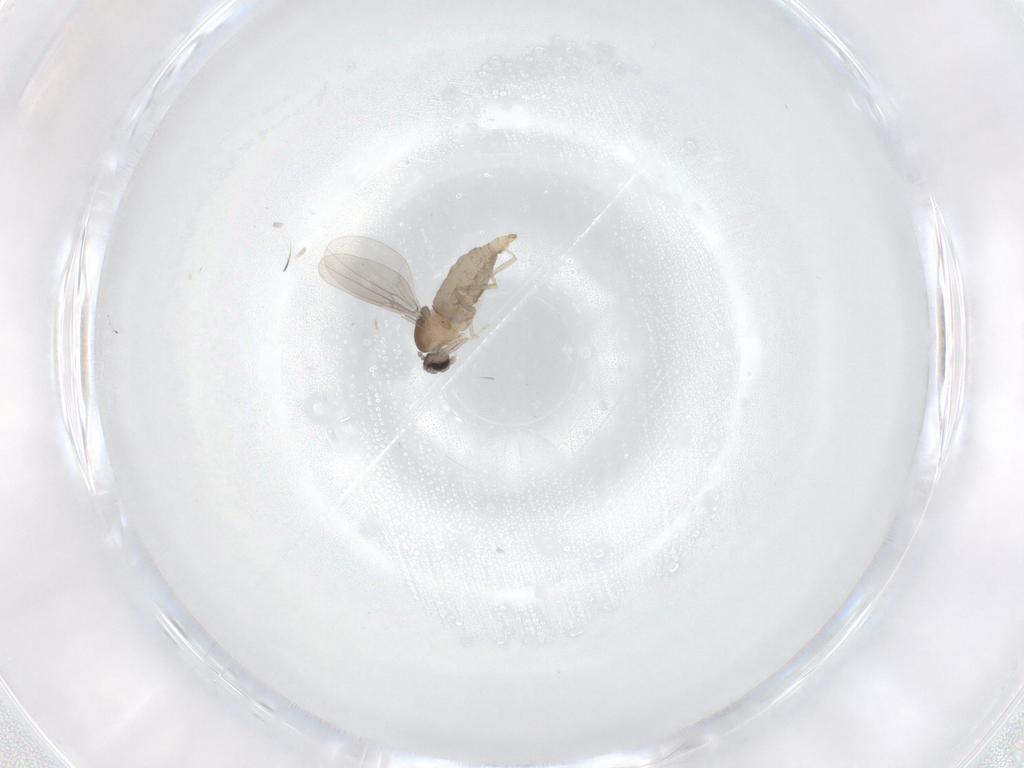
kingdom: Animalia
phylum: Arthropoda
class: Insecta
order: Diptera
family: Cecidomyiidae
